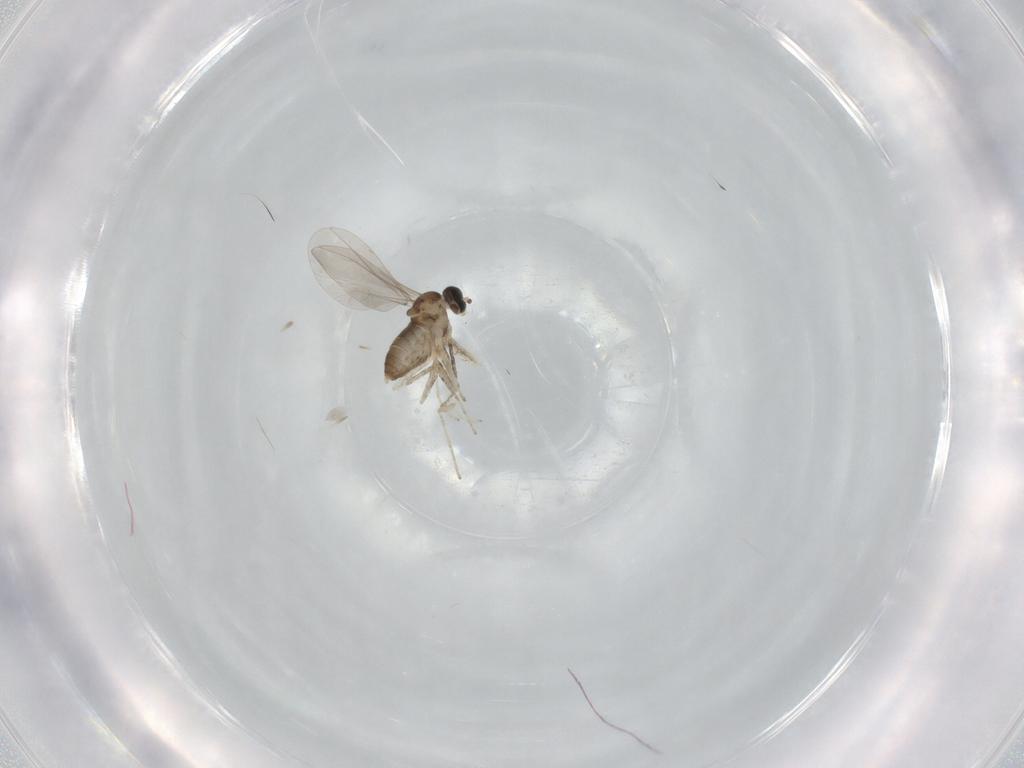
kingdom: Animalia
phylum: Arthropoda
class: Insecta
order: Diptera
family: Cecidomyiidae
